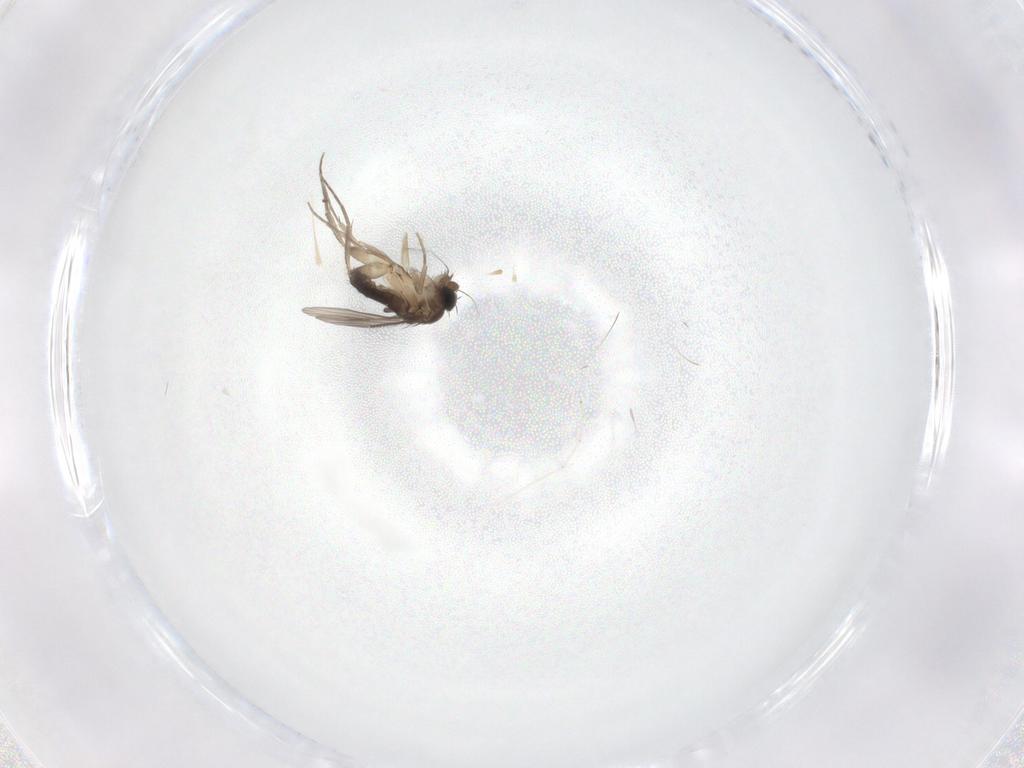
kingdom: Animalia
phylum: Arthropoda
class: Insecta
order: Diptera
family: Phoridae
